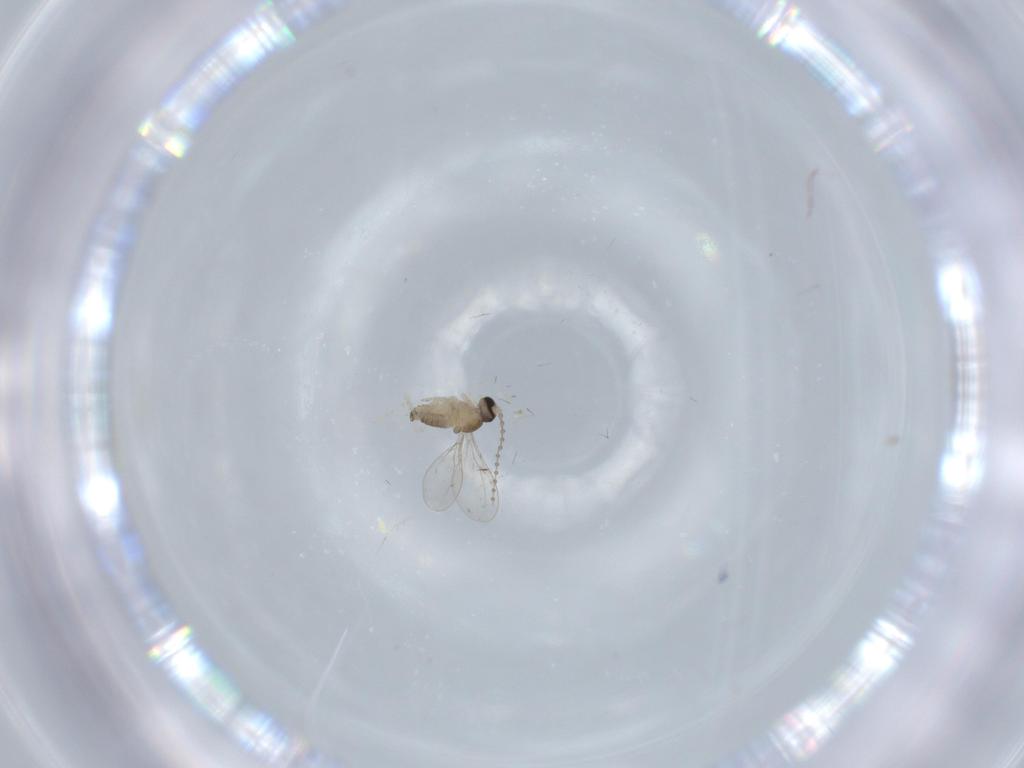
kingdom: Animalia
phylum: Arthropoda
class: Insecta
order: Diptera
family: Cecidomyiidae
